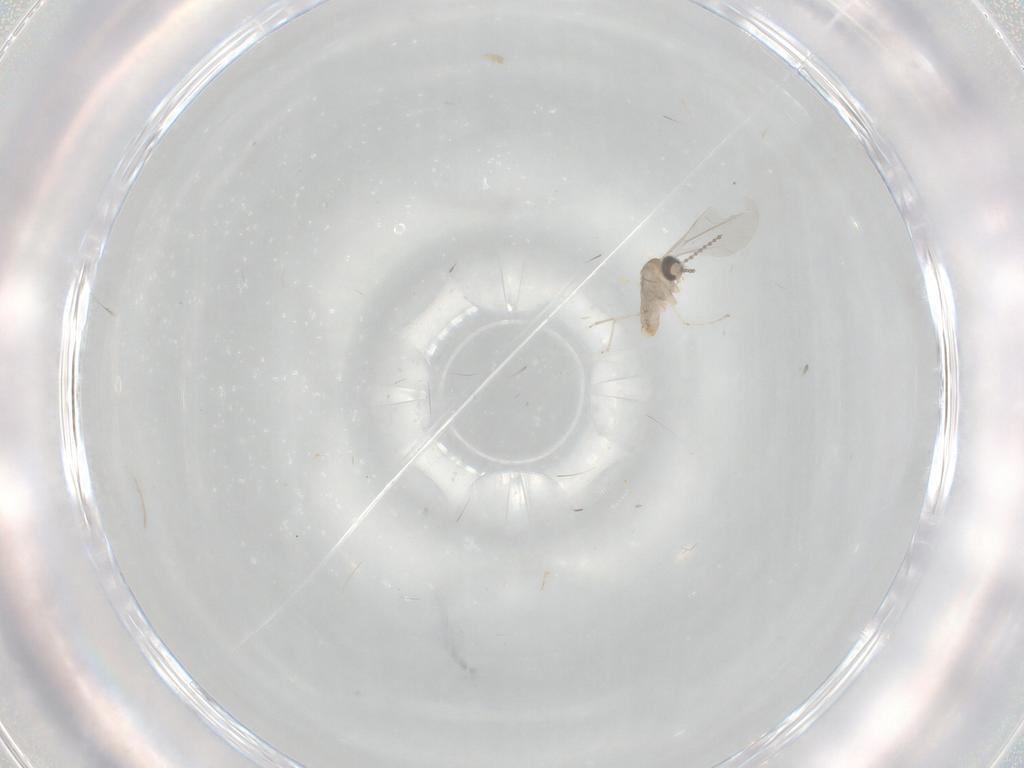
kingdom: Animalia
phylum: Arthropoda
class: Insecta
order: Diptera
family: Cecidomyiidae
